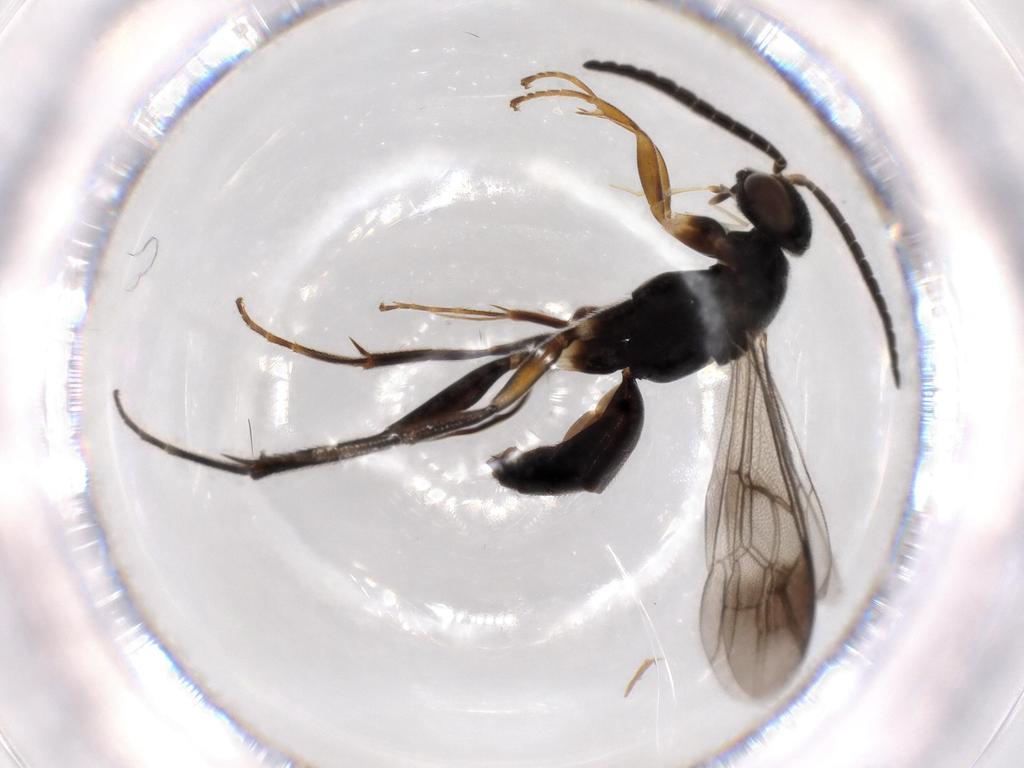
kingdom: Animalia
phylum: Arthropoda
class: Insecta
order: Hymenoptera
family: Pompilidae
